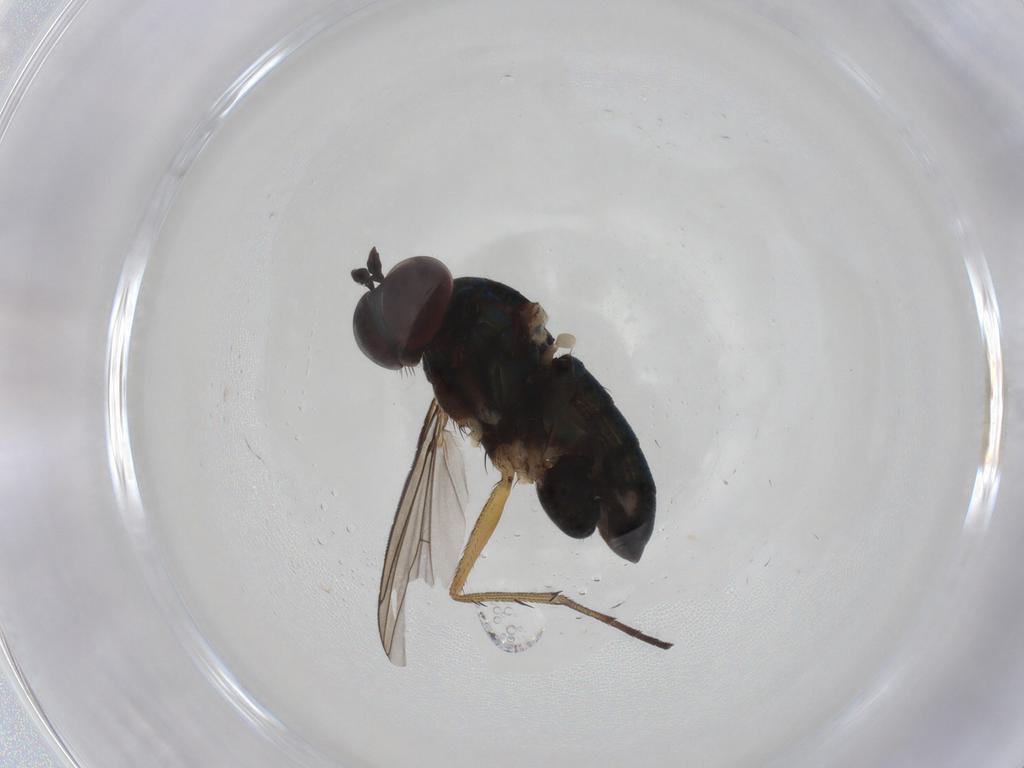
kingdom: Animalia
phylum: Arthropoda
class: Insecta
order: Diptera
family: Dolichopodidae
